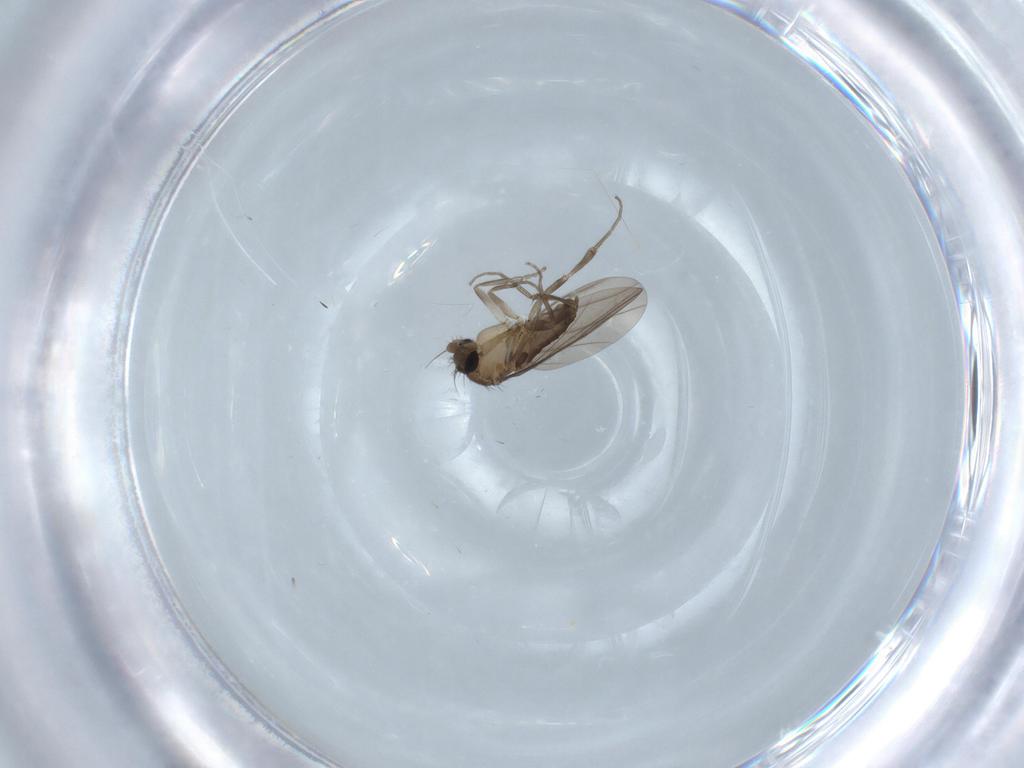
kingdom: Animalia
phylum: Arthropoda
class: Insecta
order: Diptera
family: Hybotidae
